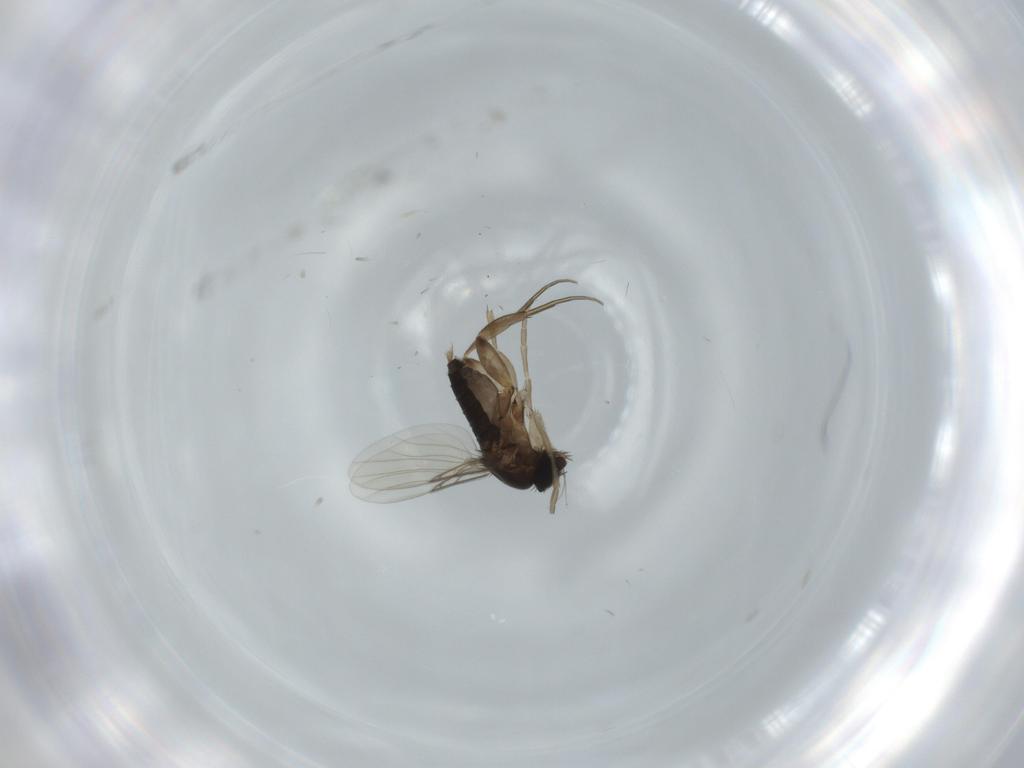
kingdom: Animalia
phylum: Arthropoda
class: Insecta
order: Diptera
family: Phoridae
